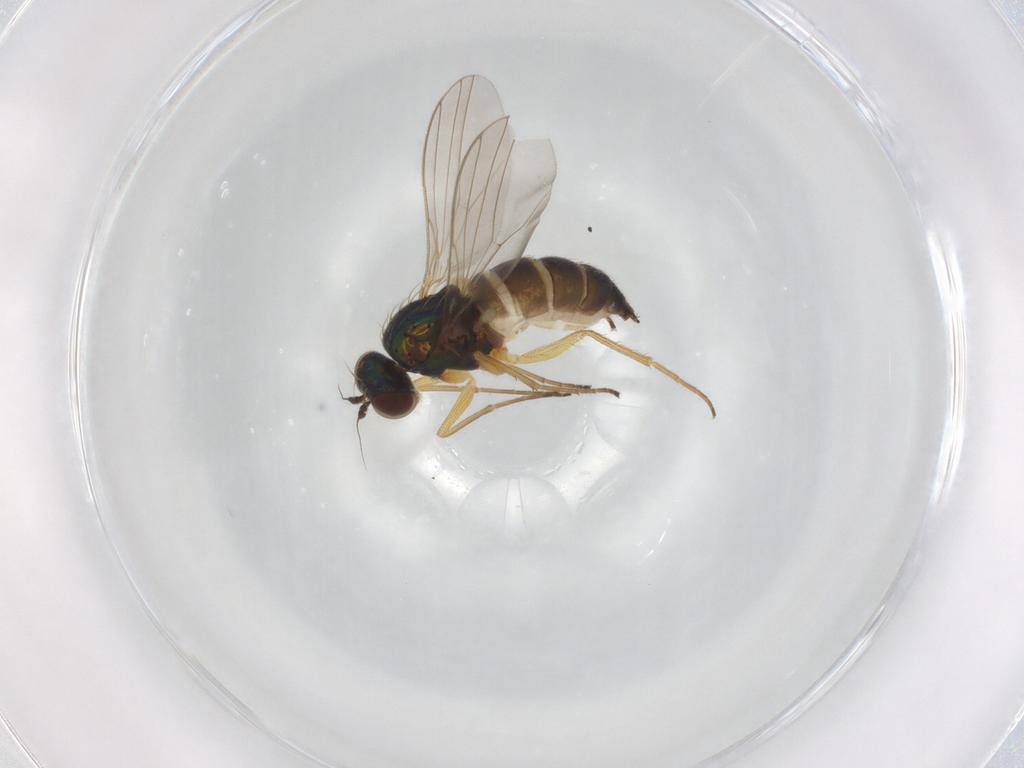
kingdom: Animalia
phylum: Arthropoda
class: Insecta
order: Diptera
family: Dolichopodidae
